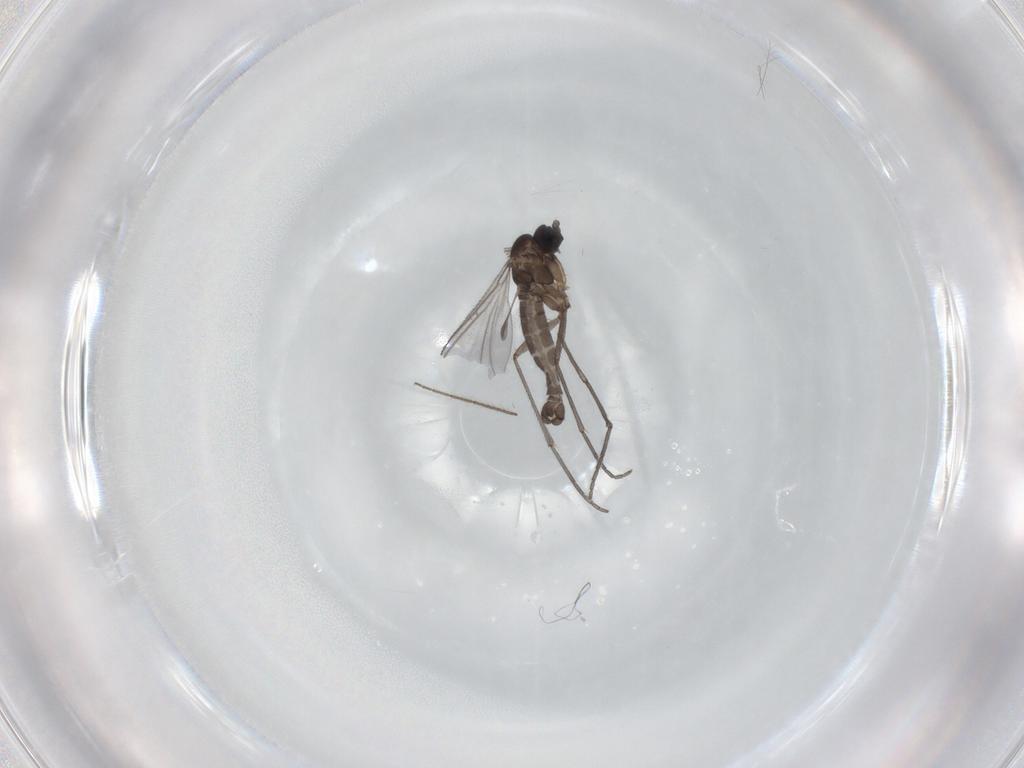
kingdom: Animalia
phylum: Arthropoda
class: Insecta
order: Diptera
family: Sciaridae
